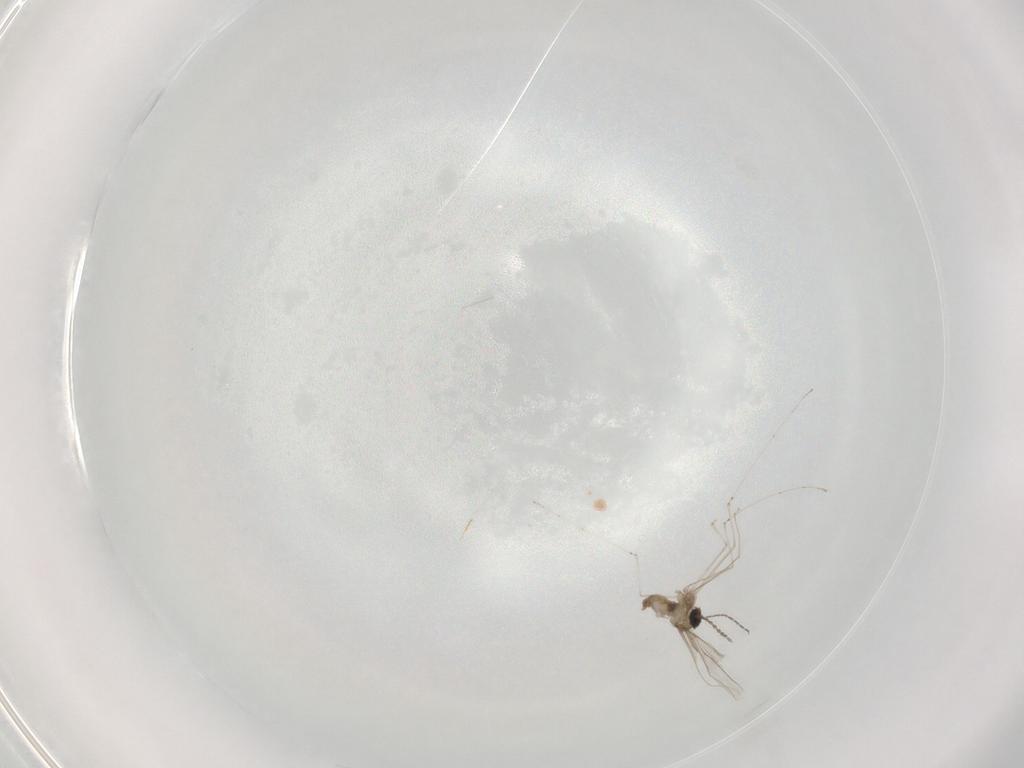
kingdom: Animalia
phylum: Arthropoda
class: Insecta
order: Diptera
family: Cecidomyiidae
